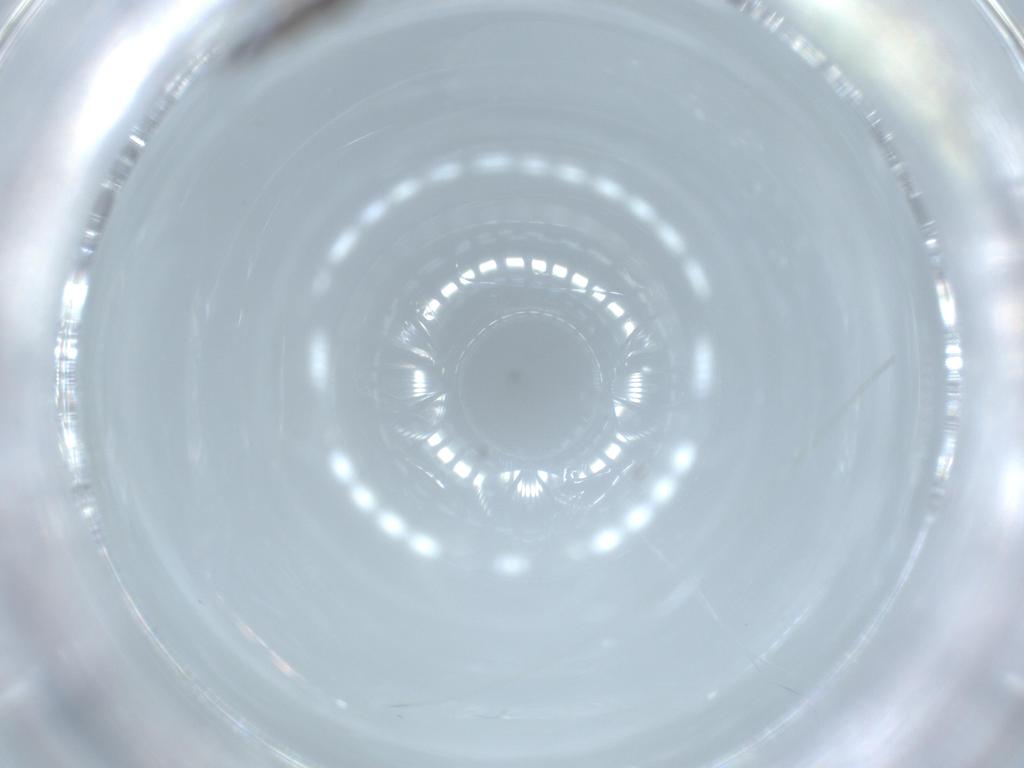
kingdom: Animalia
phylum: Arthropoda
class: Insecta
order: Diptera
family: Sciaridae
